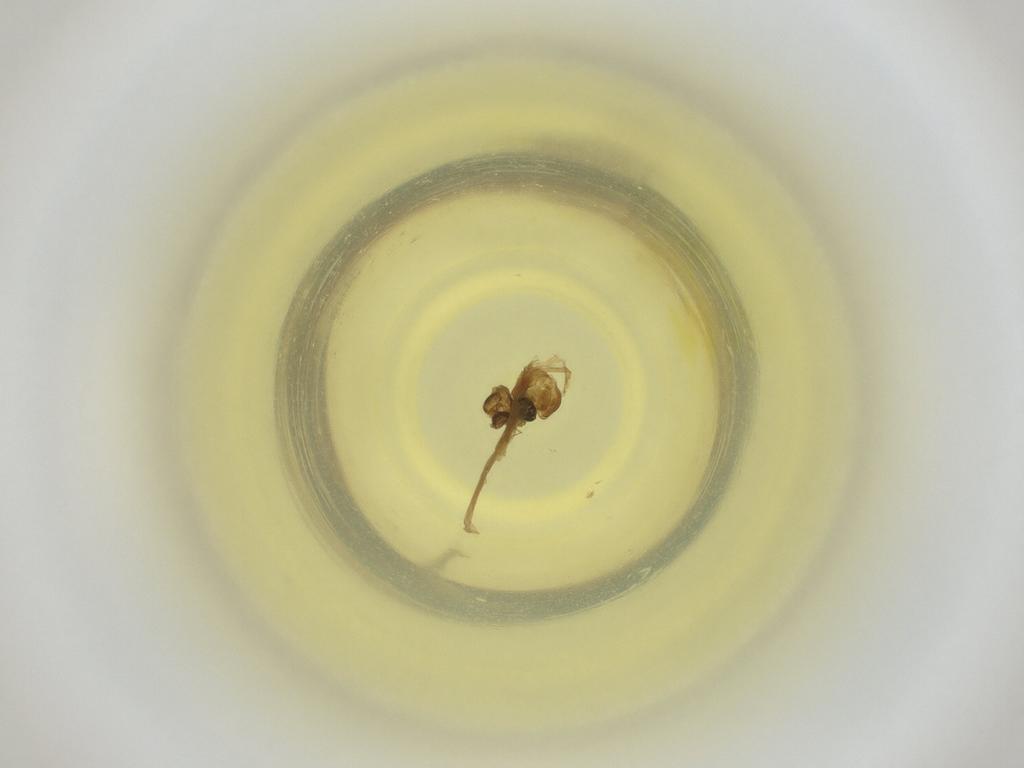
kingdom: Animalia
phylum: Arthropoda
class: Insecta
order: Diptera
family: Cecidomyiidae
